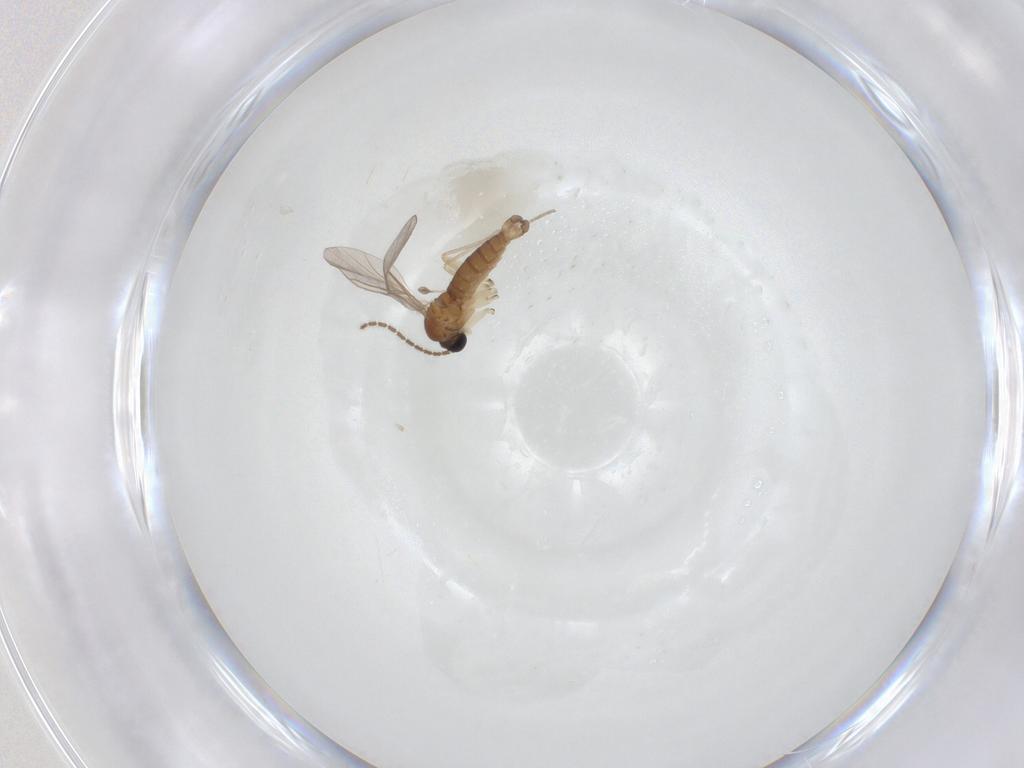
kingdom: Animalia
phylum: Arthropoda
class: Insecta
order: Diptera
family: Sciaridae
